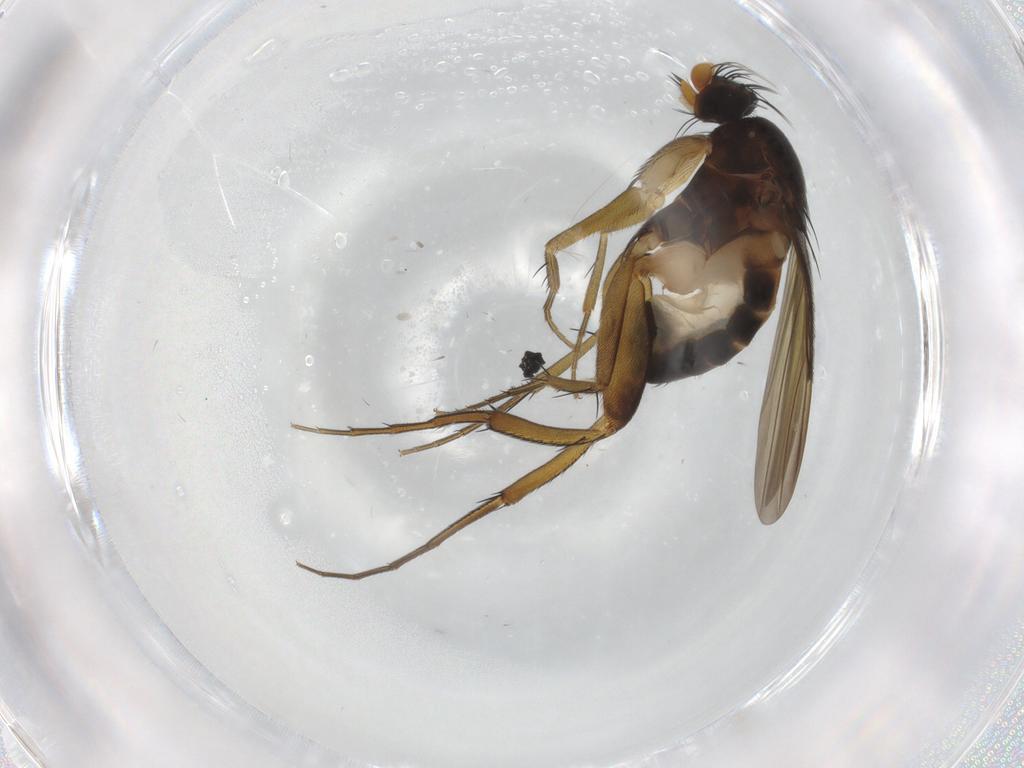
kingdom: Animalia
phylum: Arthropoda
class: Insecta
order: Diptera
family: Phoridae
